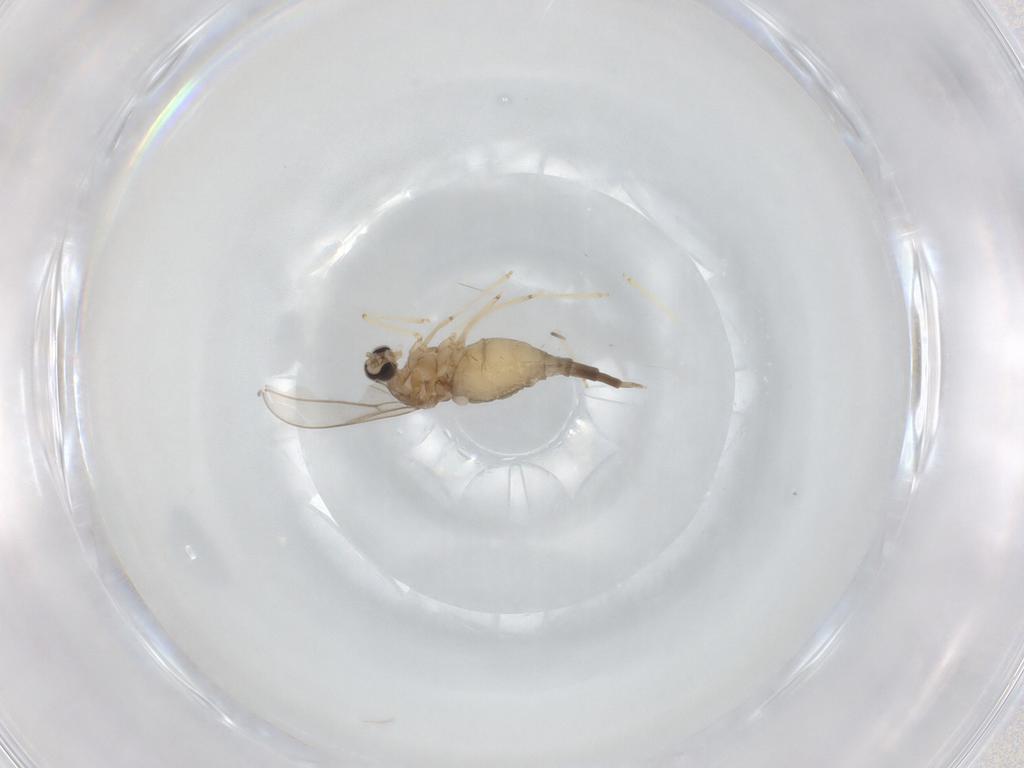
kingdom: Animalia
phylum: Arthropoda
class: Insecta
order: Diptera
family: Cecidomyiidae
